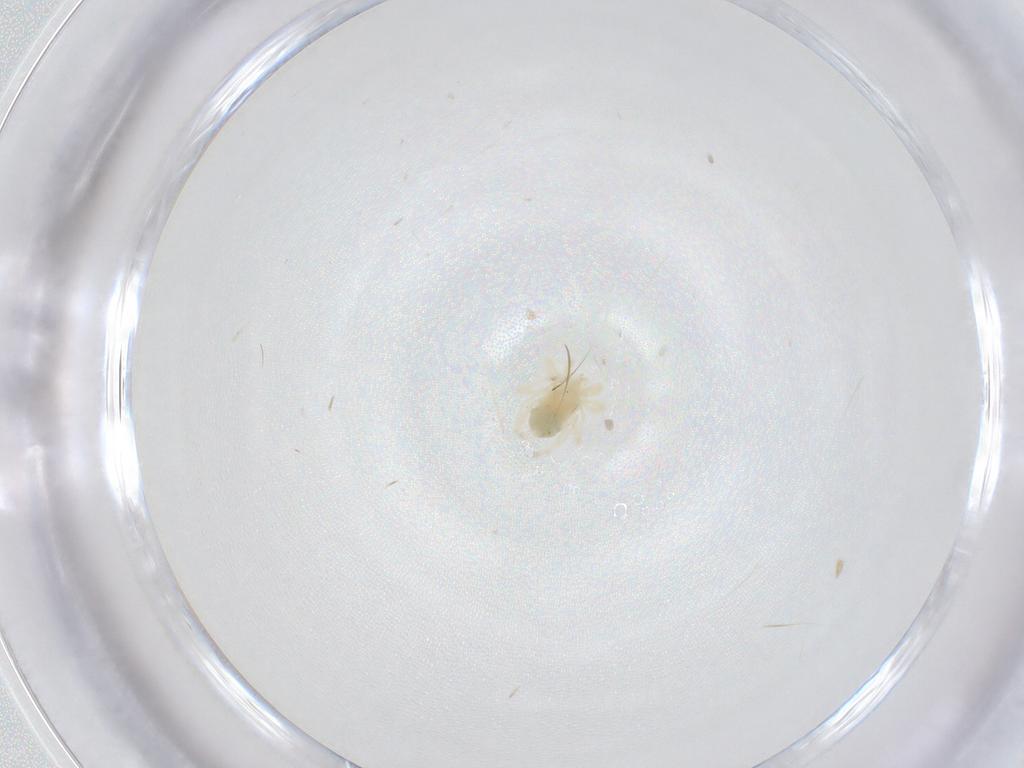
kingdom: Animalia
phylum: Arthropoda
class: Arachnida
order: Trombidiformes
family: Anystidae
